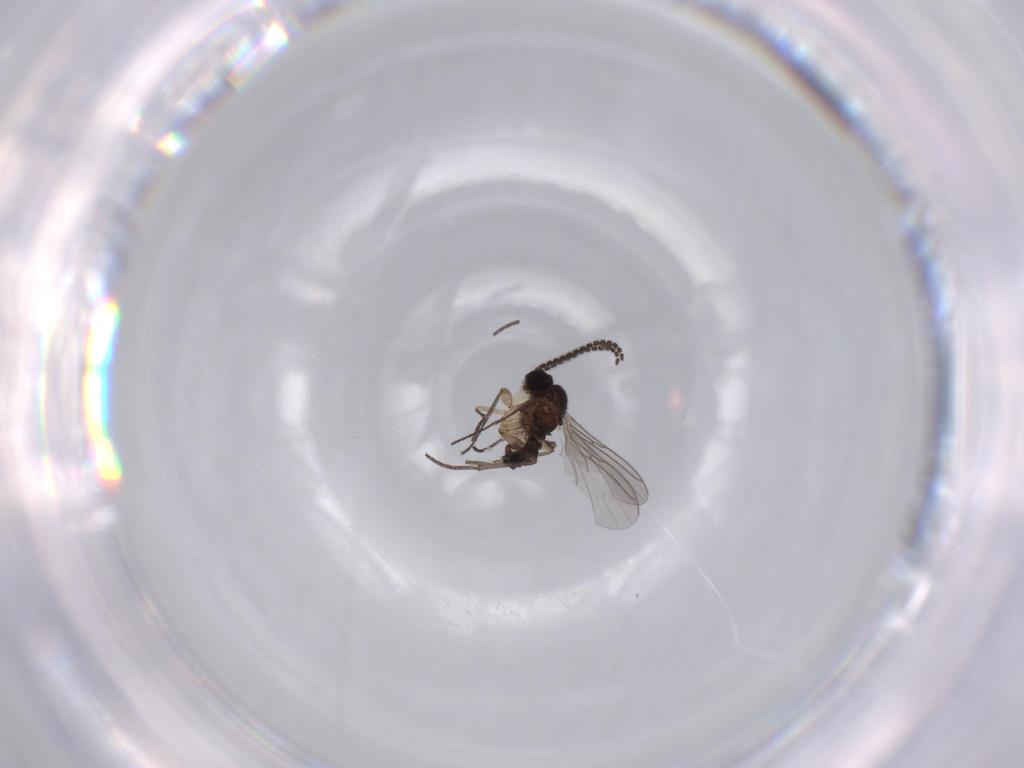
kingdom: Animalia
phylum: Arthropoda
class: Insecta
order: Diptera
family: Sciaridae
